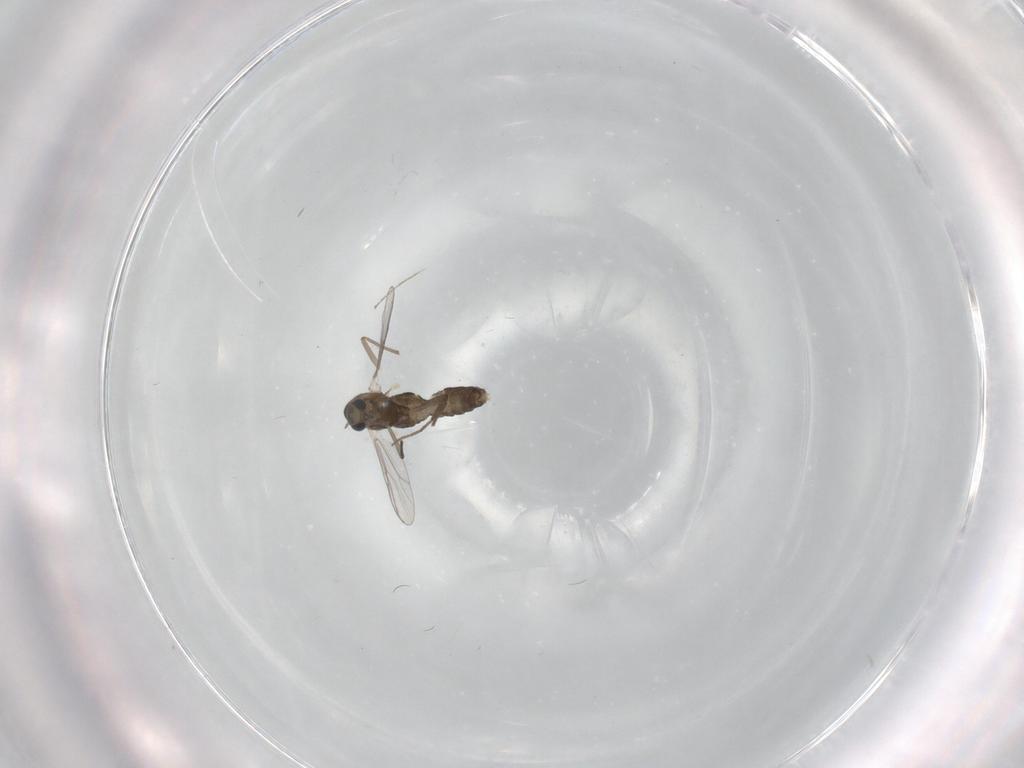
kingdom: Animalia
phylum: Arthropoda
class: Insecta
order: Diptera
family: Chironomidae
